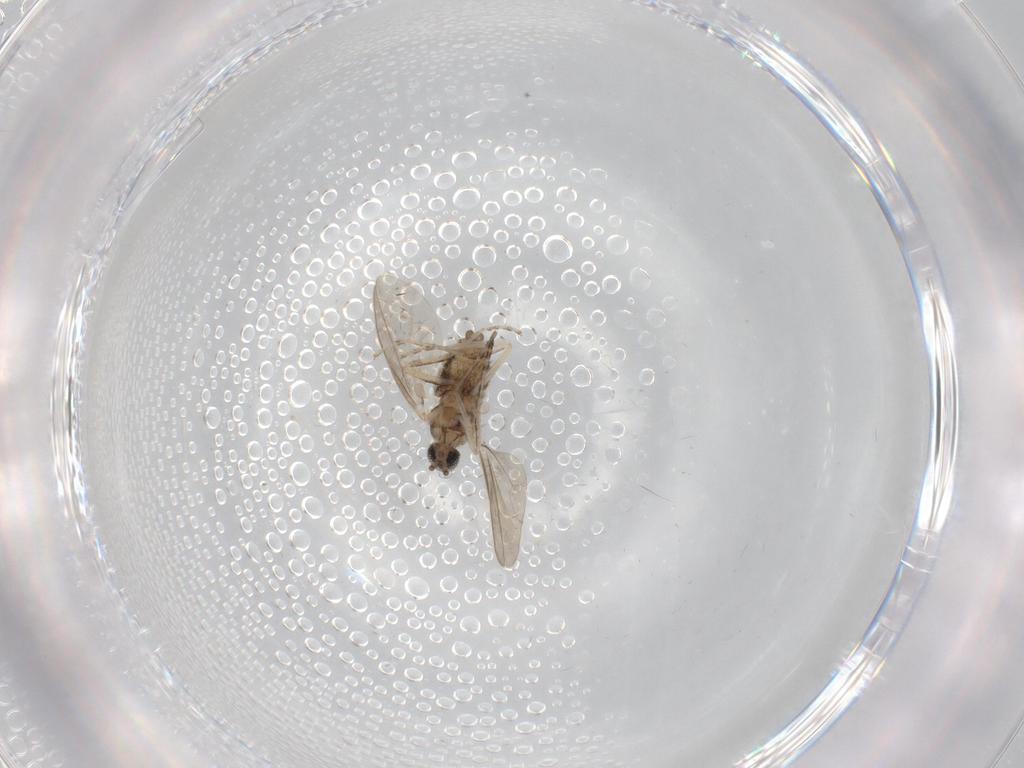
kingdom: Animalia
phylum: Arthropoda
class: Insecta
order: Diptera
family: Cecidomyiidae
